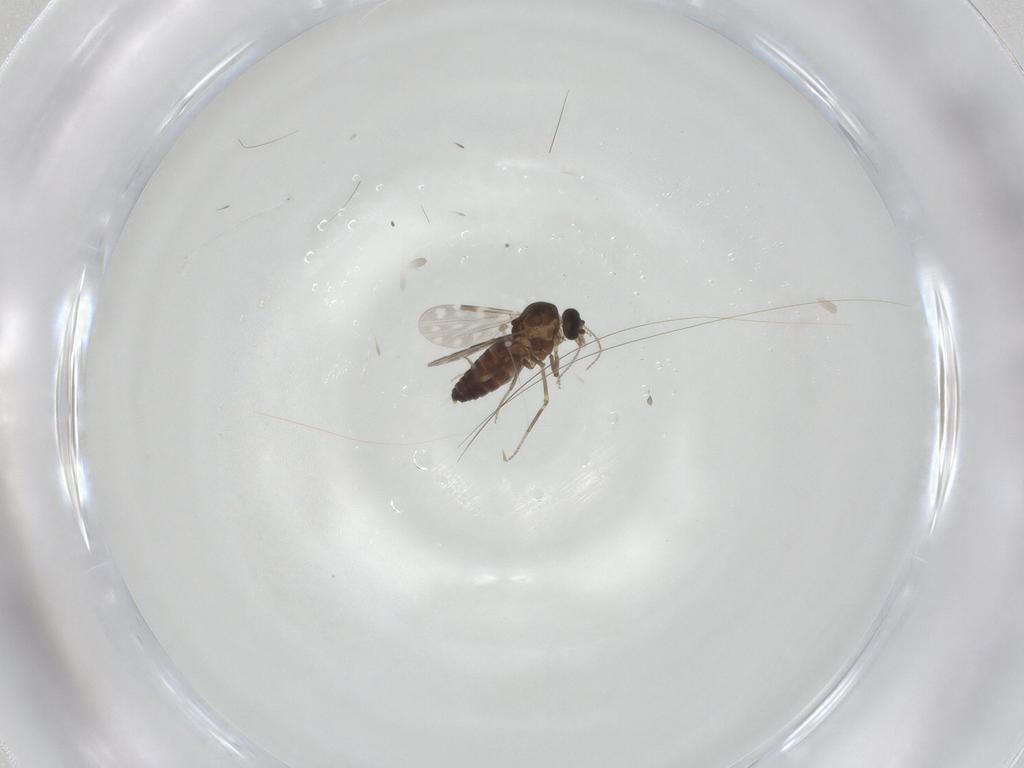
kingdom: Animalia
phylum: Arthropoda
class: Insecta
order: Diptera
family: Ceratopogonidae
